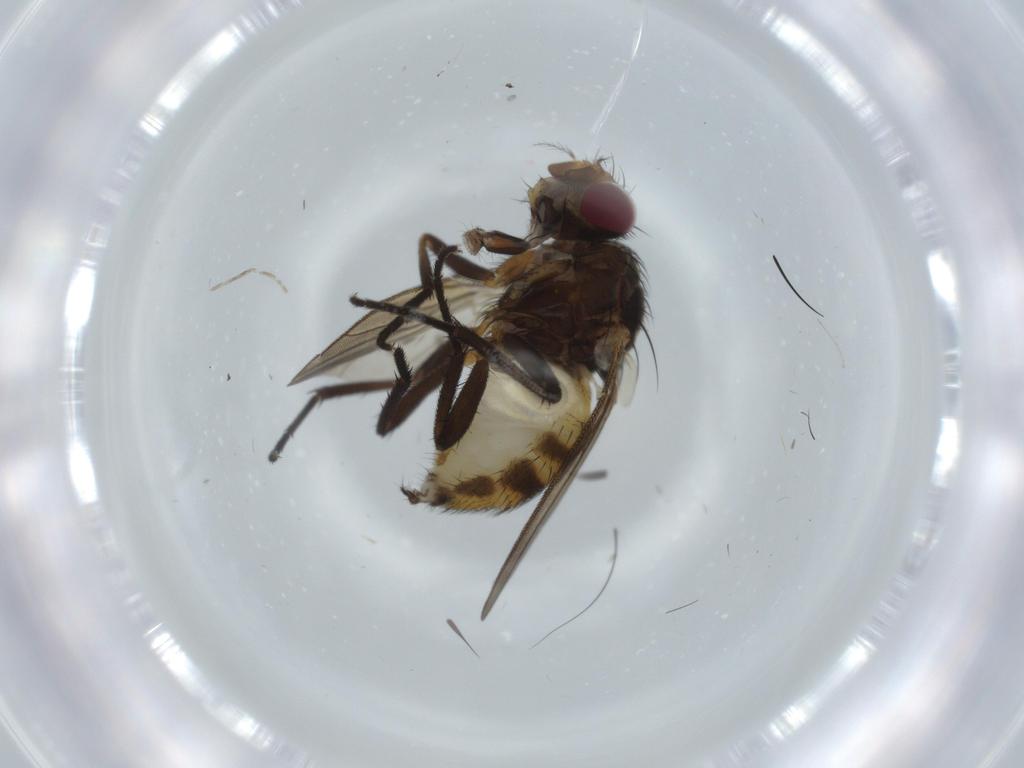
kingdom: Animalia
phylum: Arthropoda
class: Insecta
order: Diptera
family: Anthomyiidae
